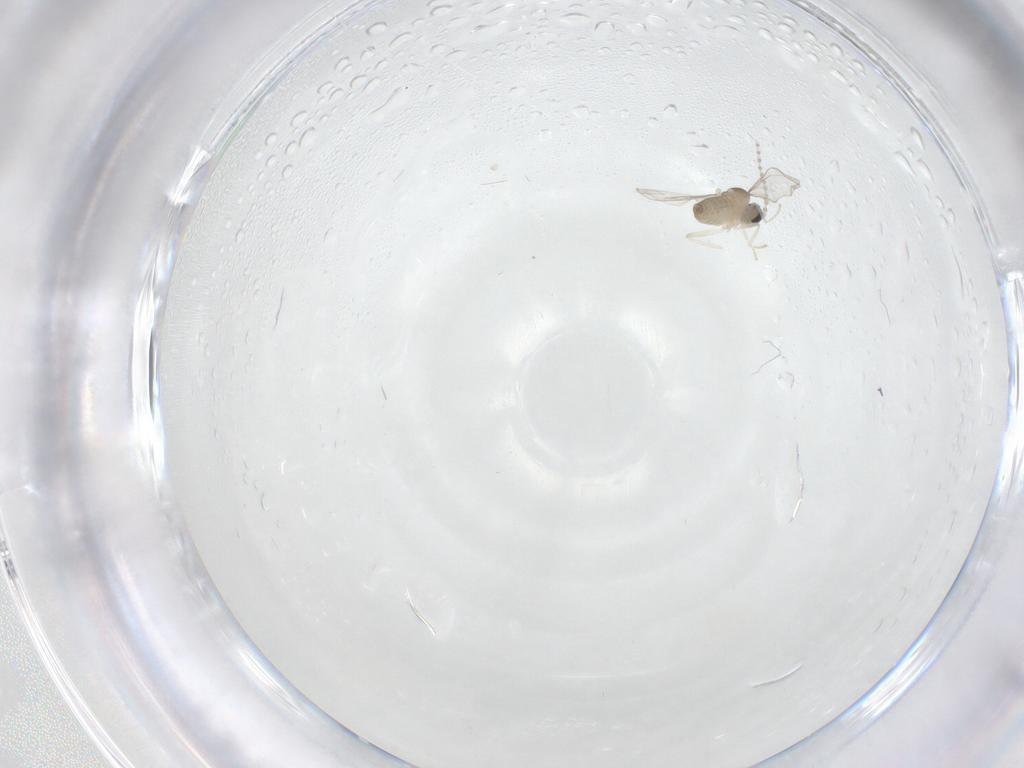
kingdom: Animalia
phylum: Arthropoda
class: Insecta
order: Diptera
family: Cecidomyiidae
